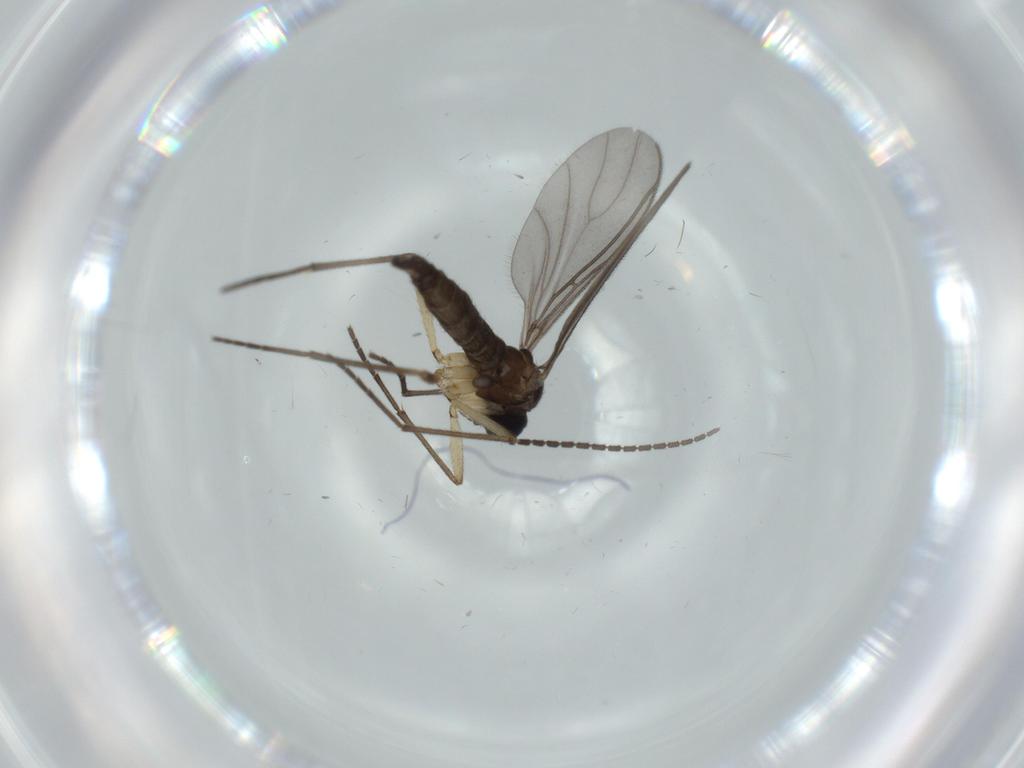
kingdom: Animalia
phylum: Arthropoda
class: Insecta
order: Diptera
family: Sciaridae
